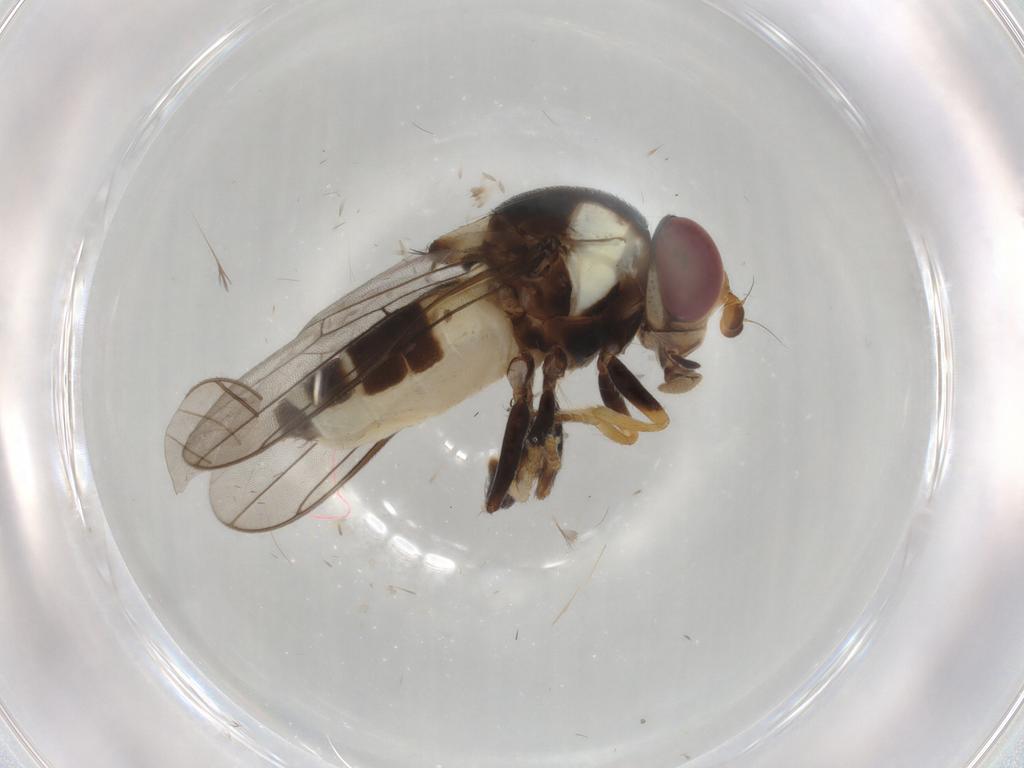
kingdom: Animalia
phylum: Arthropoda
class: Insecta
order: Diptera
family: Chloropidae
